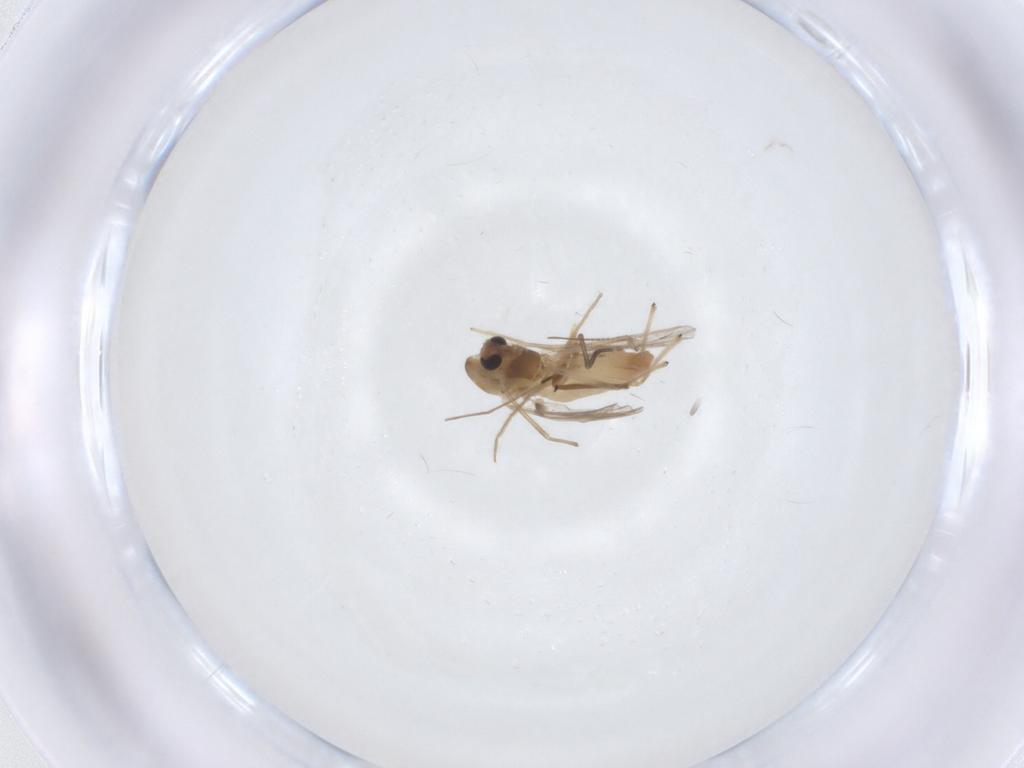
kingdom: Animalia
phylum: Arthropoda
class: Insecta
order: Diptera
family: Chironomidae
